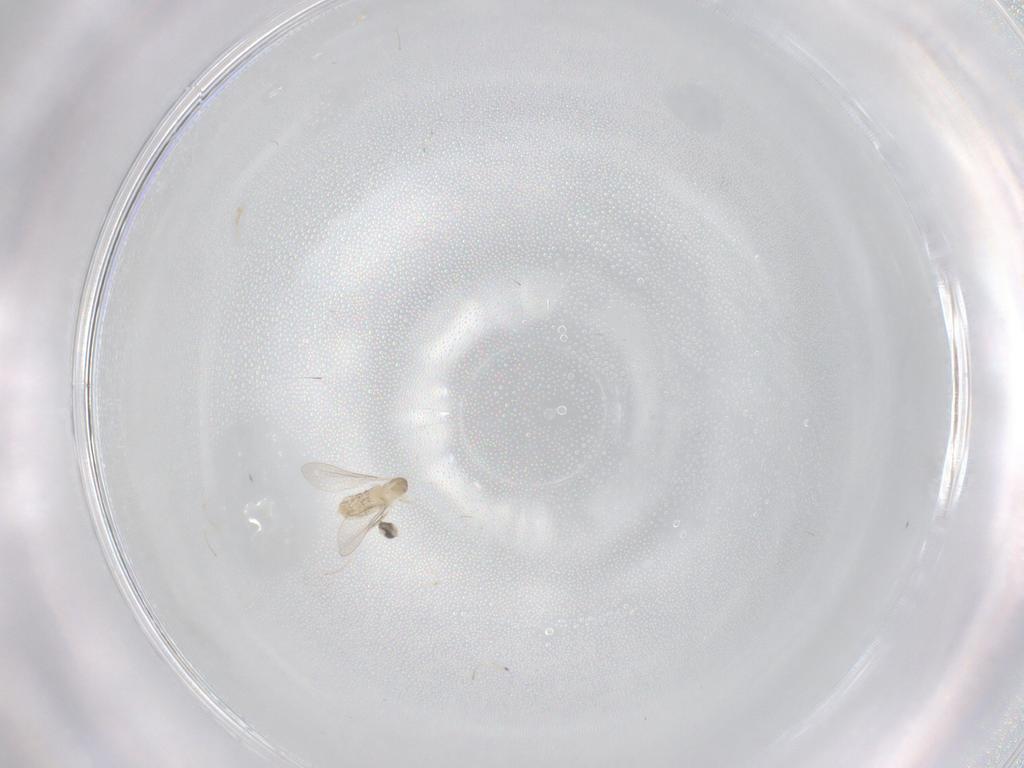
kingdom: Animalia
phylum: Arthropoda
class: Insecta
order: Diptera
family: Cecidomyiidae
